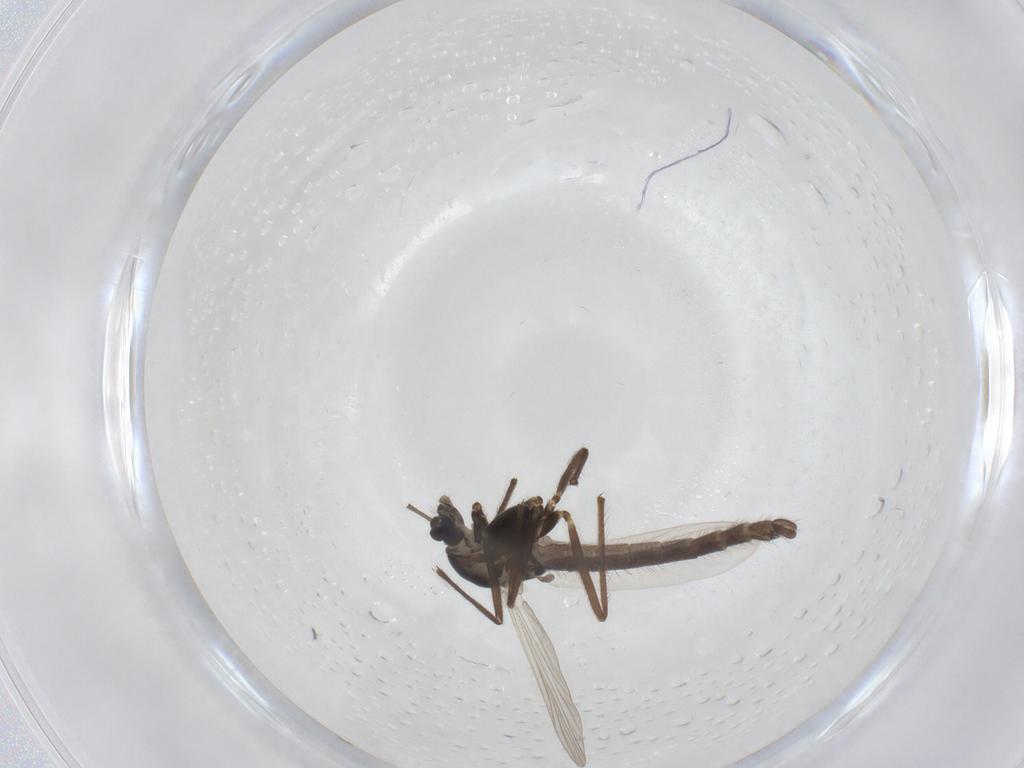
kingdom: Animalia
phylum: Arthropoda
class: Insecta
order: Diptera
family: Chironomidae
